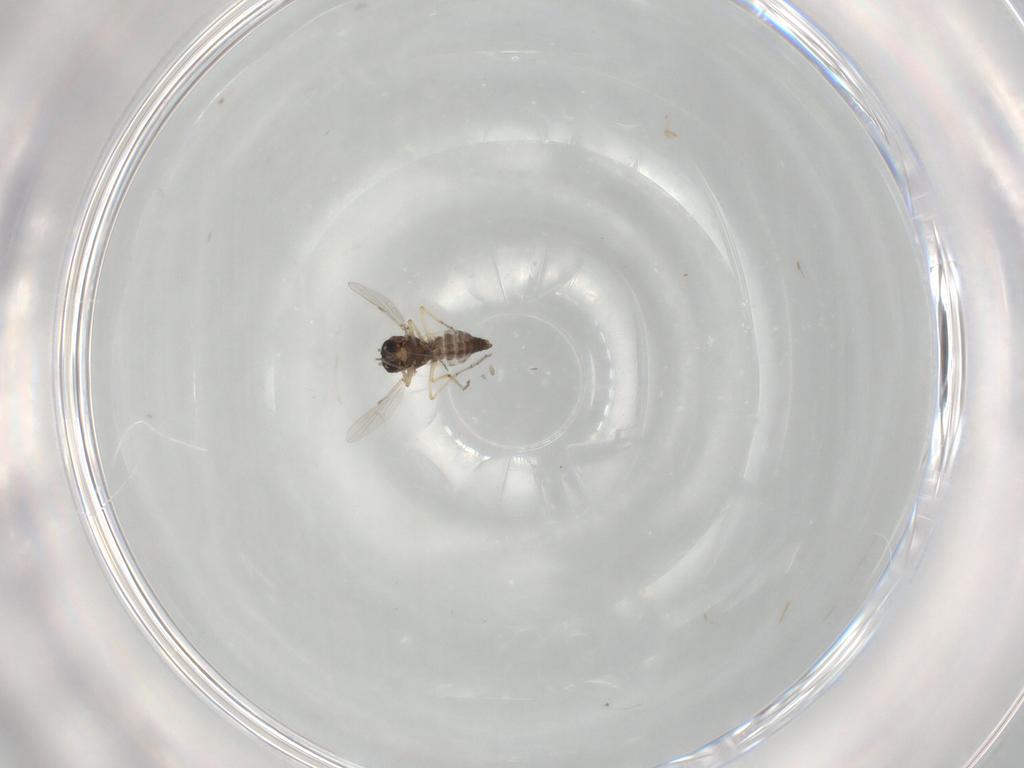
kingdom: Animalia
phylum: Arthropoda
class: Insecta
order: Diptera
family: Ceratopogonidae
